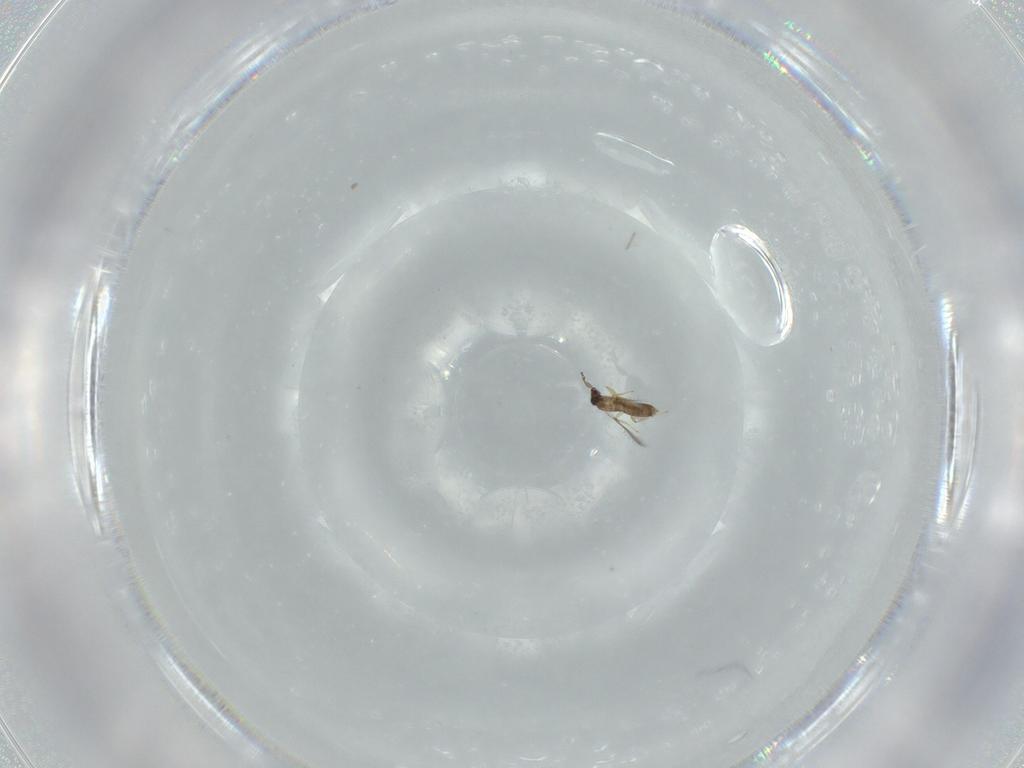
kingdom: Animalia
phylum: Arthropoda
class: Insecta
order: Hymenoptera
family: Mymaridae
